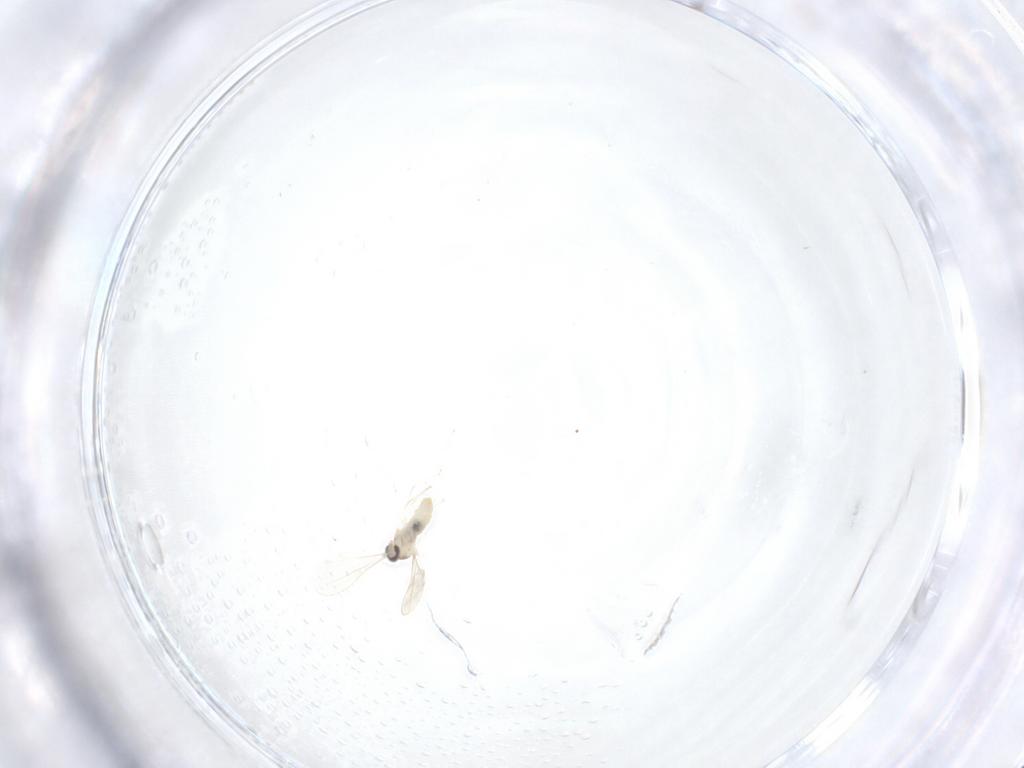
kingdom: Animalia
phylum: Arthropoda
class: Insecta
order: Diptera
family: Cecidomyiidae
